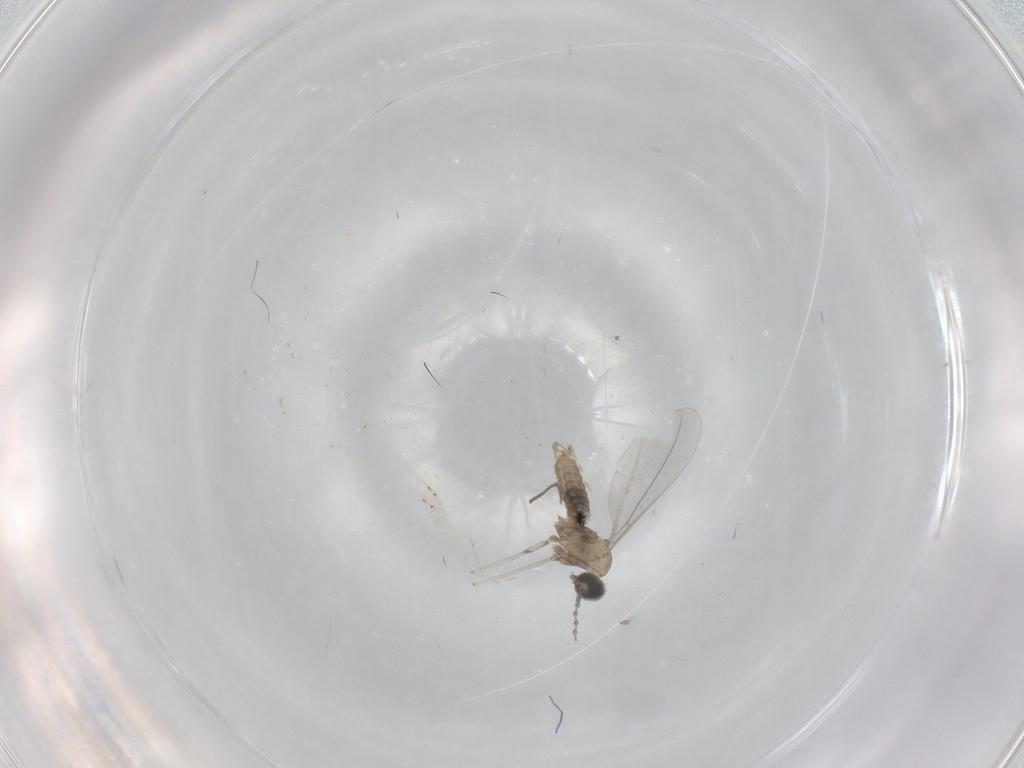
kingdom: Animalia
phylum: Arthropoda
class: Insecta
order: Diptera
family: Chironomidae
